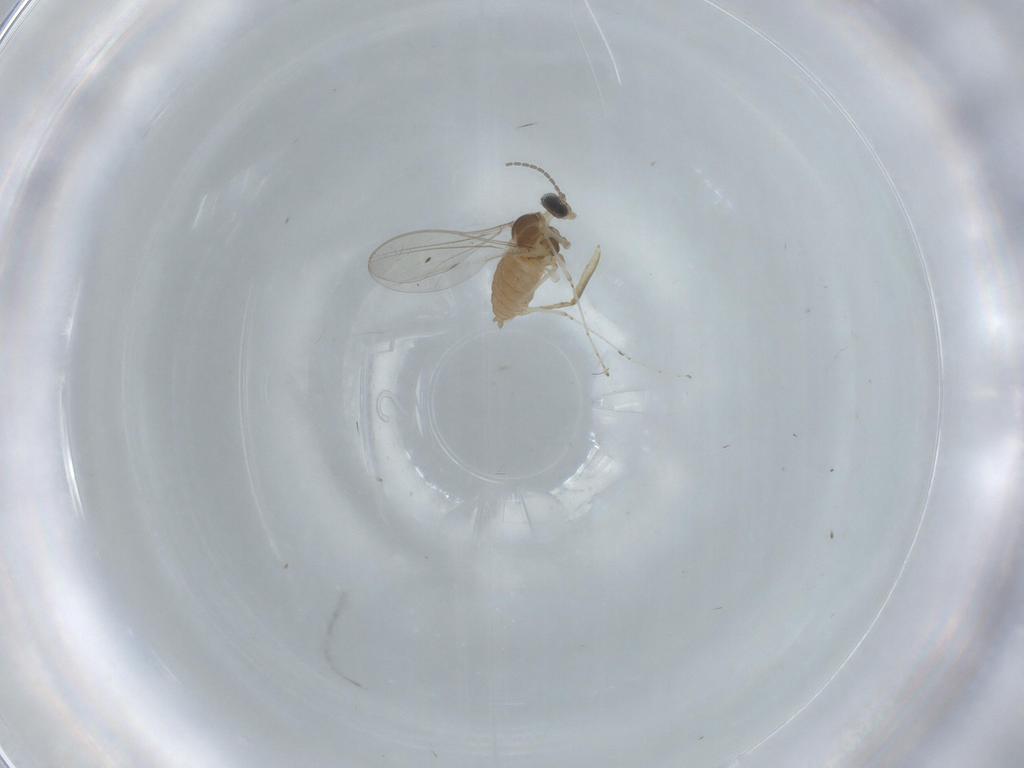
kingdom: Animalia
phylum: Arthropoda
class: Insecta
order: Diptera
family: Cecidomyiidae
